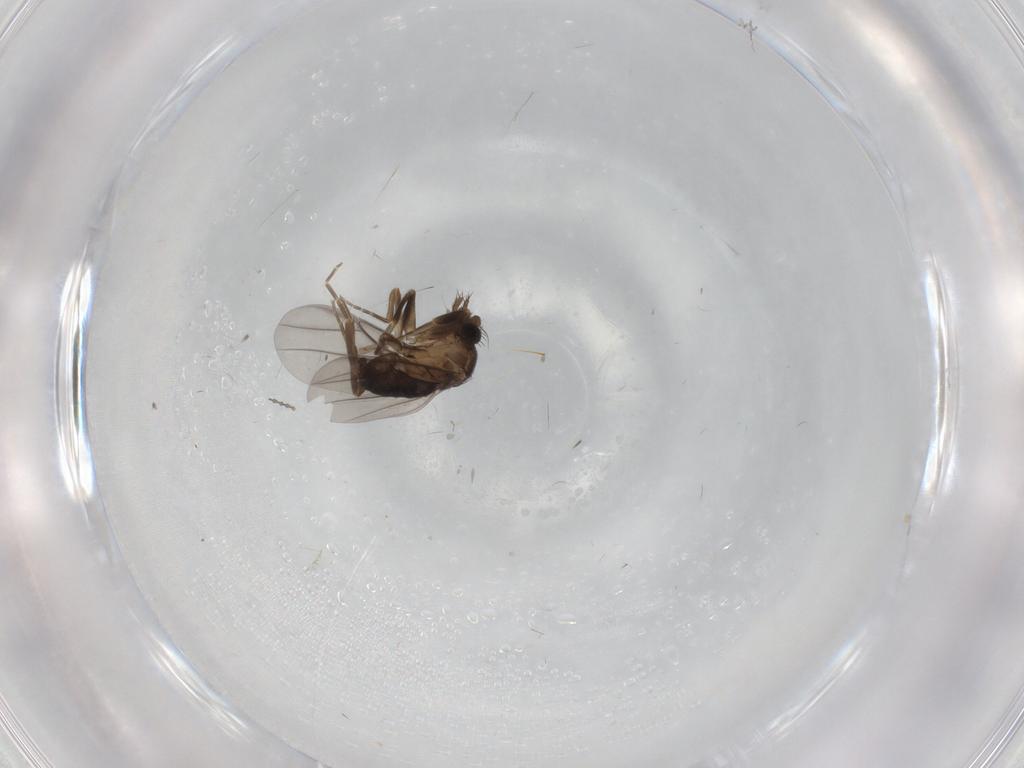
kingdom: Animalia
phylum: Arthropoda
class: Insecta
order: Diptera
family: Cecidomyiidae
